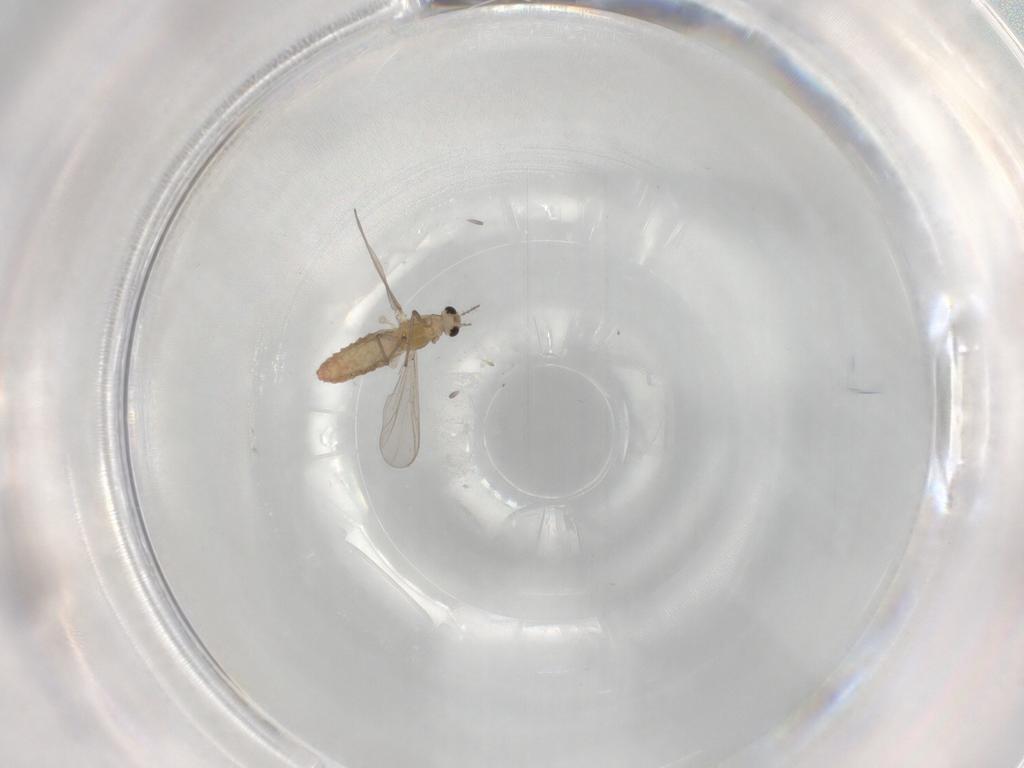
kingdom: Animalia
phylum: Arthropoda
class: Insecta
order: Diptera
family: Chironomidae
